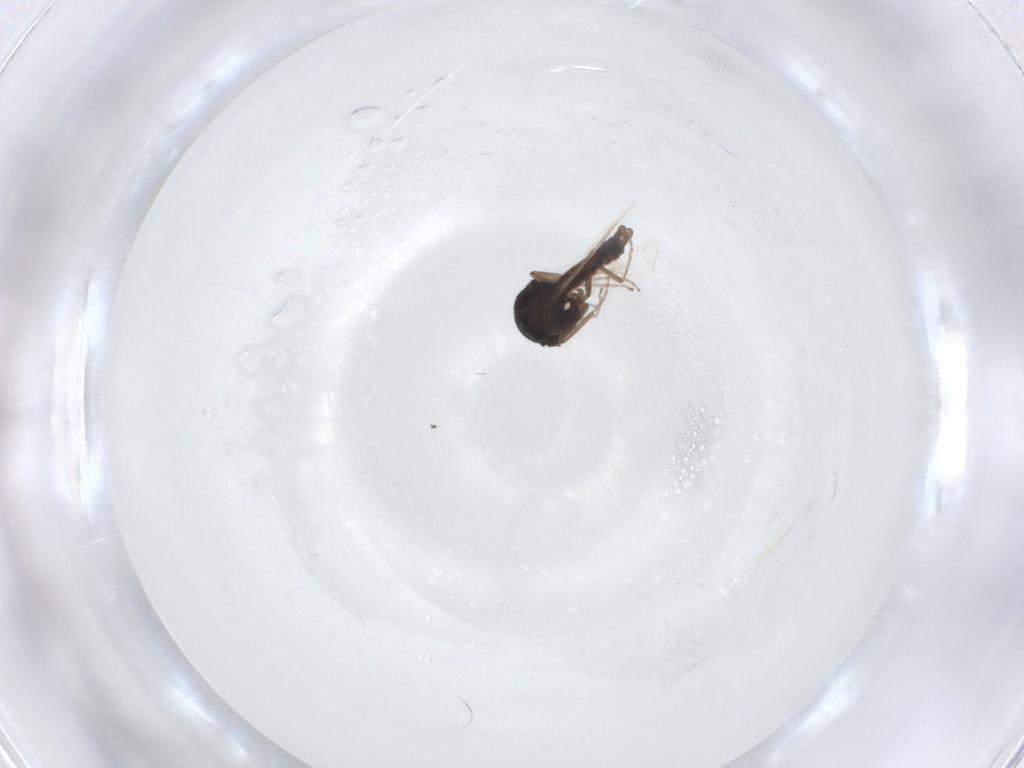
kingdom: Animalia
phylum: Arthropoda
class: Insecta
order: Diptera
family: Ceratopogonidae
